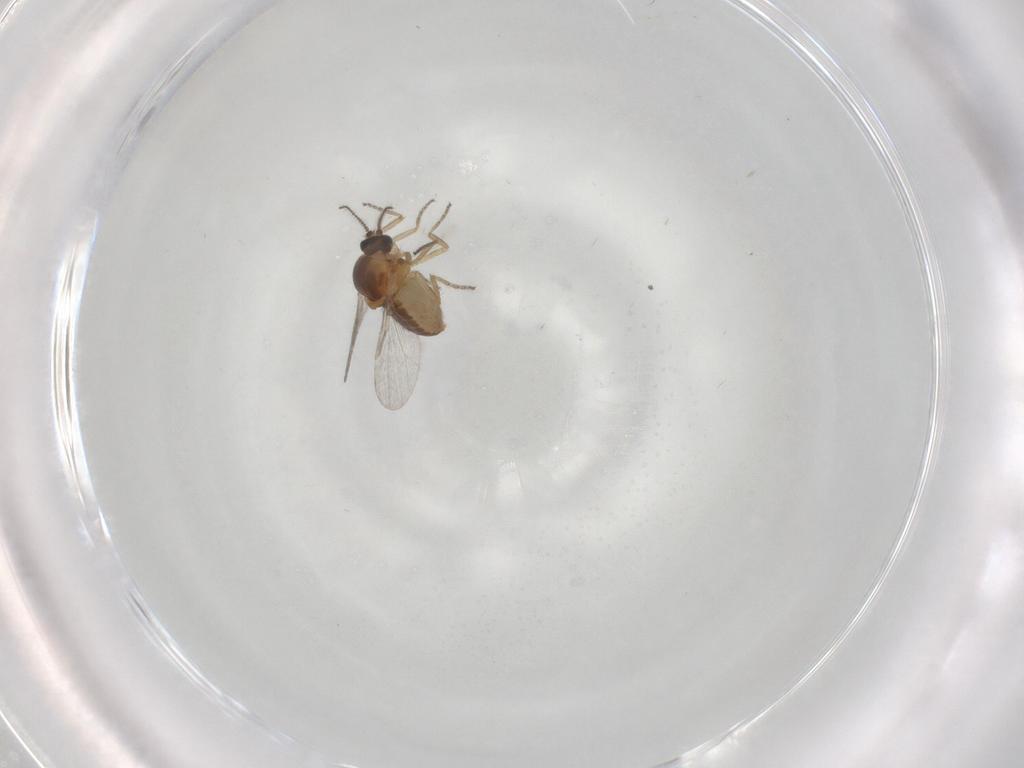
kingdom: Animalia
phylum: Arthropoda
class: Insecta
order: Diptera
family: Ceratopogonidae
